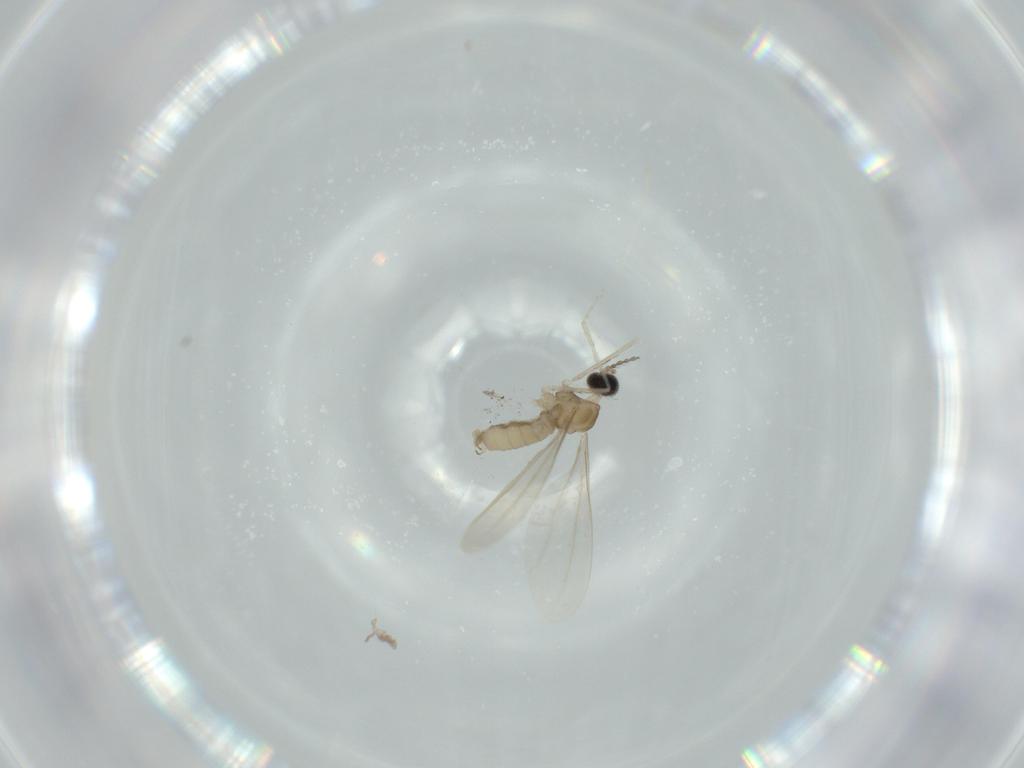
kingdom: Animalia
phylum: Arthropoda
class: Insecta
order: Diptera
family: Cecidomyiidae
